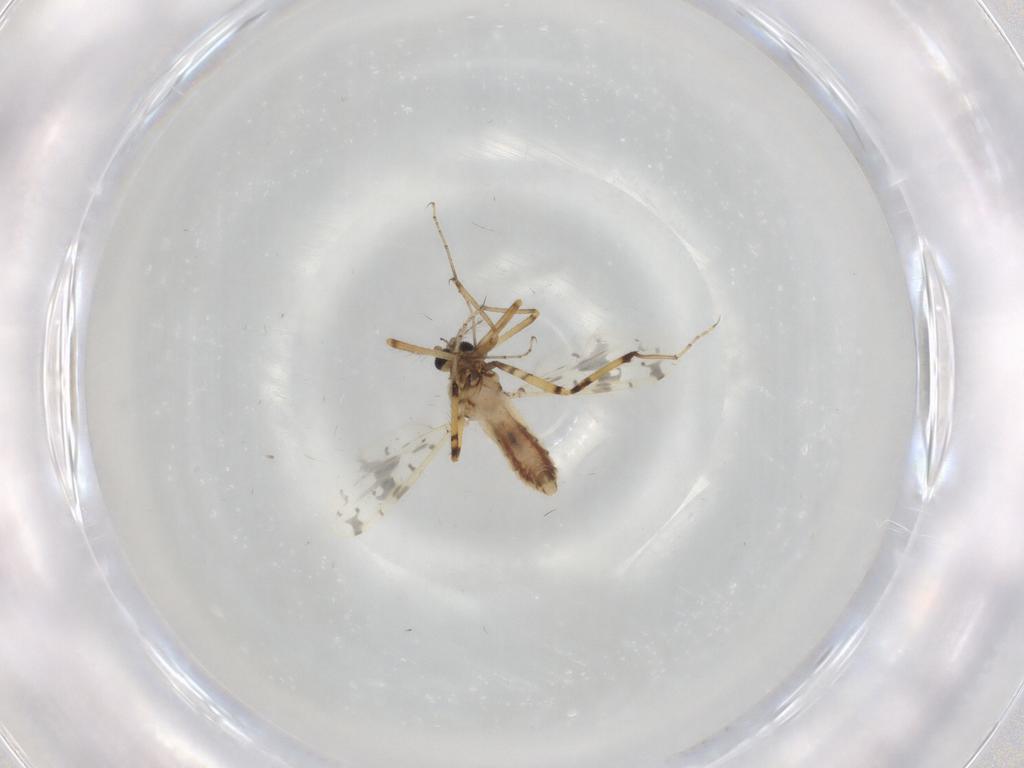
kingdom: Animalia
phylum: Arthropoda
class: Insecta
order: Diptera
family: Ceratopogonidae
